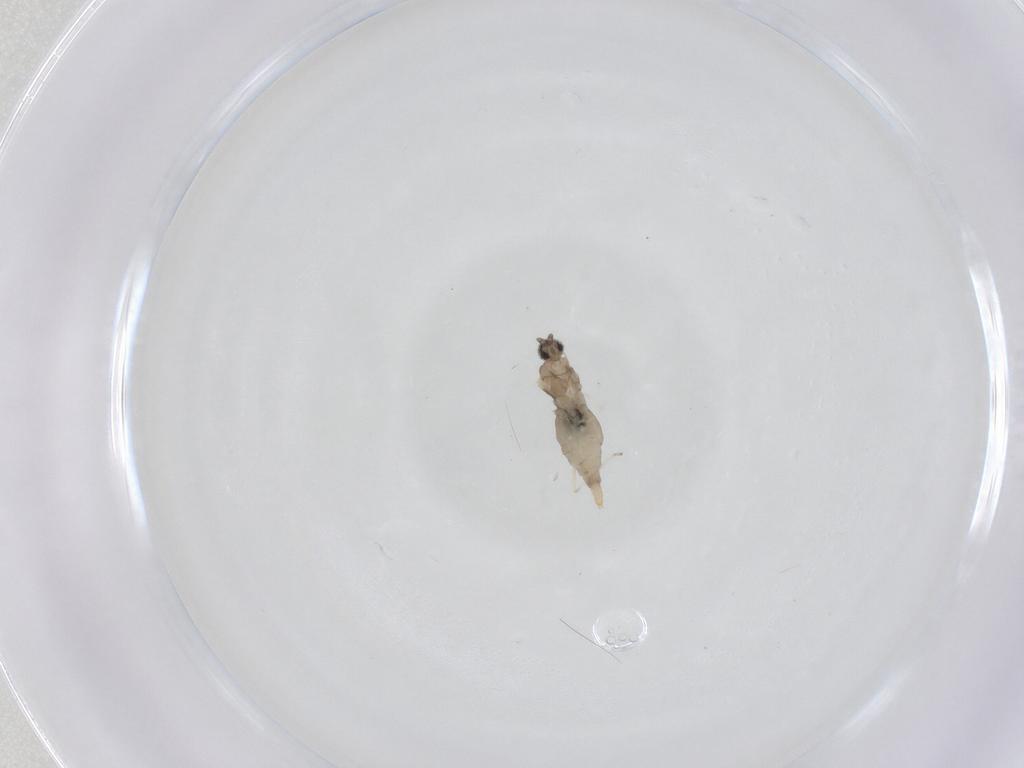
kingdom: Animalia
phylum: Arthropoda
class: Insecta
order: Diptera
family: Cecidomyiidae
